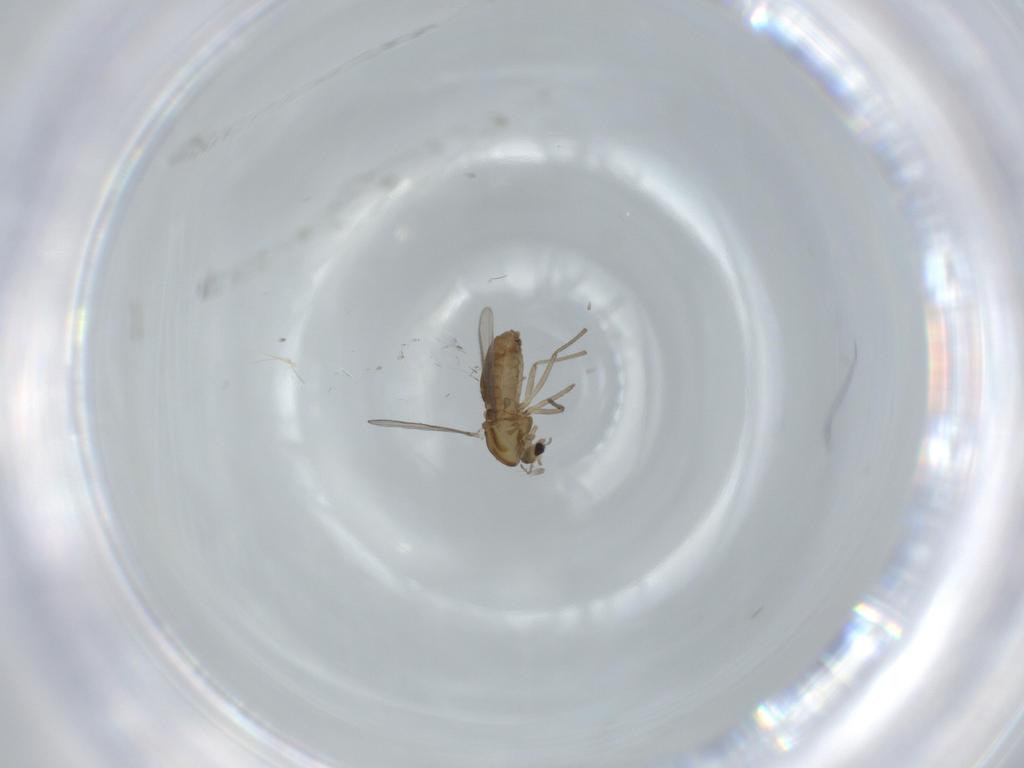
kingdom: Animalia
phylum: Arthropoda
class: Insecta
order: Diptera
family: Chironomidae
